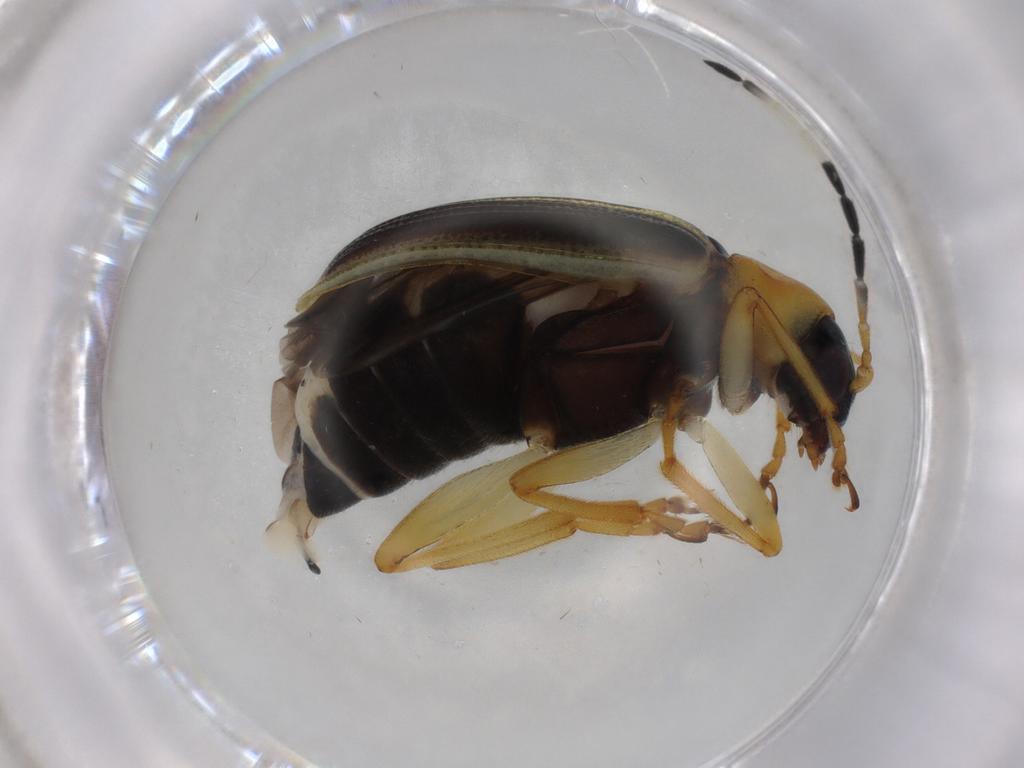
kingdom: Animalia
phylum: Arthropoda
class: Insecta
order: Coleoptera
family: Chrysomelidae
